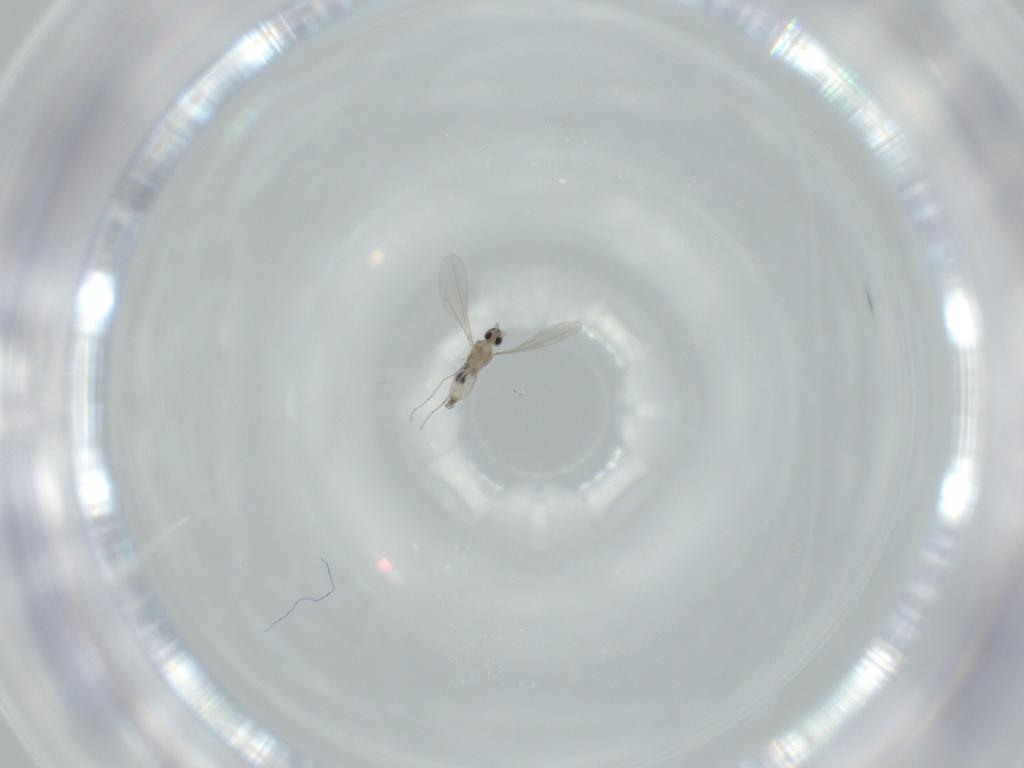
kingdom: Animalia
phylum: Arthropoda
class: Insecta
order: Diptera
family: Cecidomyiidae
